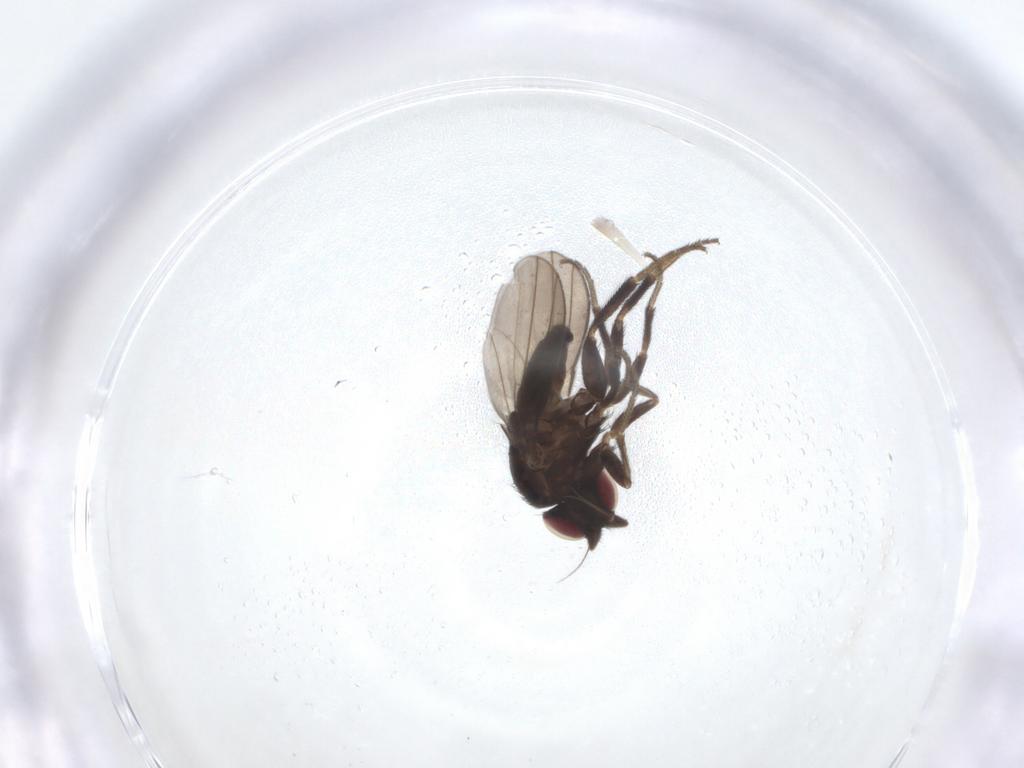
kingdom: Animalia
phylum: Arthropoda
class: Insecta
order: Diptera
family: Milichiidae
